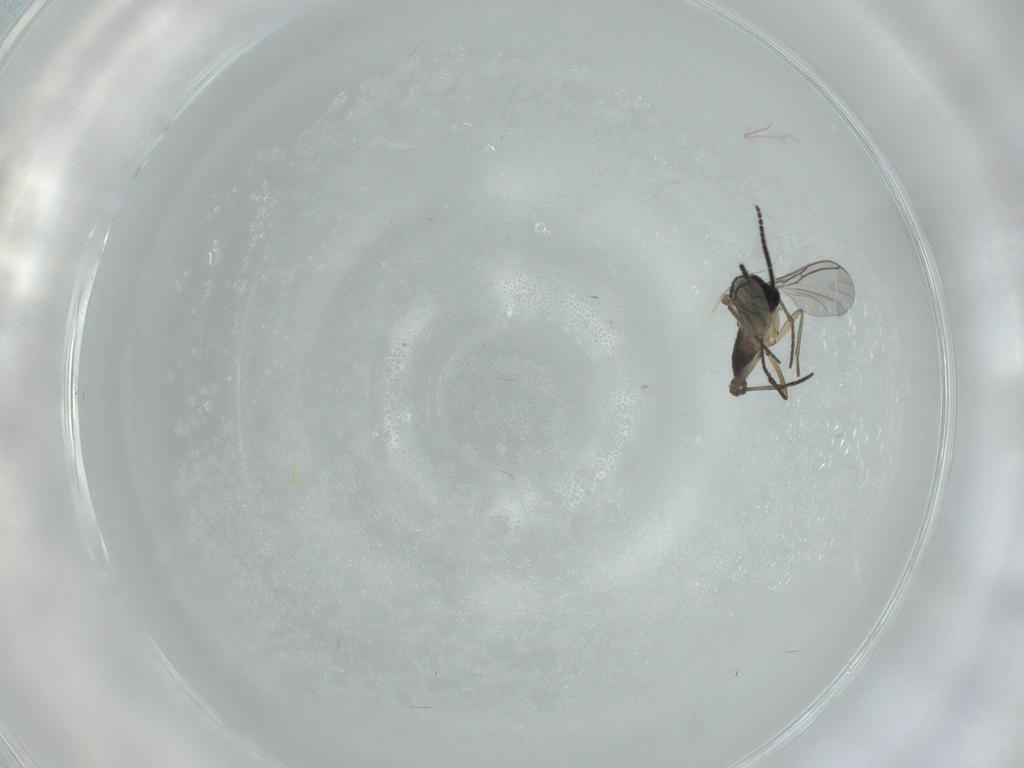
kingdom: Animalia
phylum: Arthropoda
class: Insecta
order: Diptera
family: Sciaridae
